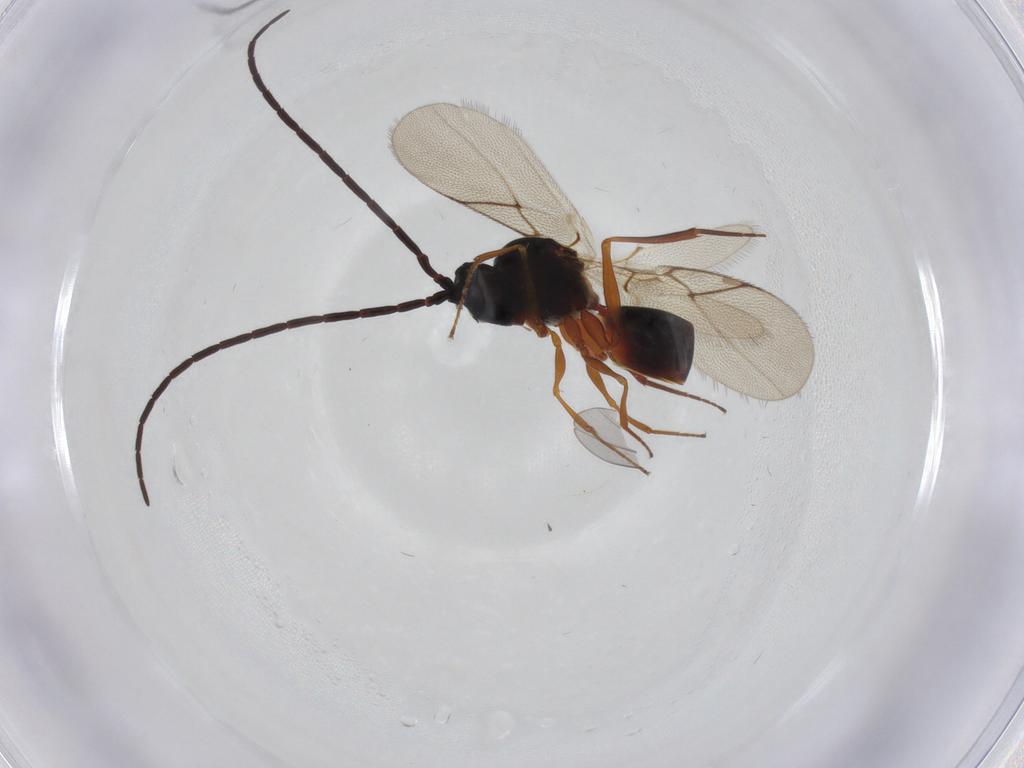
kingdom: Animalia
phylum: Arthropoda
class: Insecta
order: Hymenoptera
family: Figitidae
